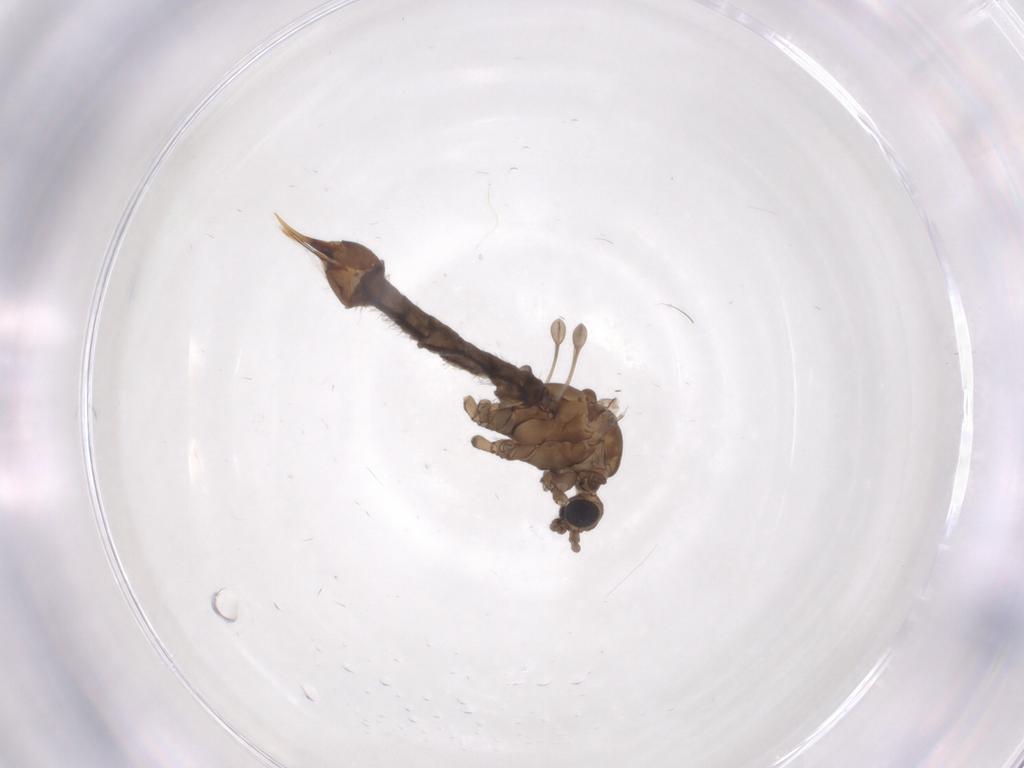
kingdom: Animalia
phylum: Arthropoda
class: Insecta
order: Diptera
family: Limoniidae
